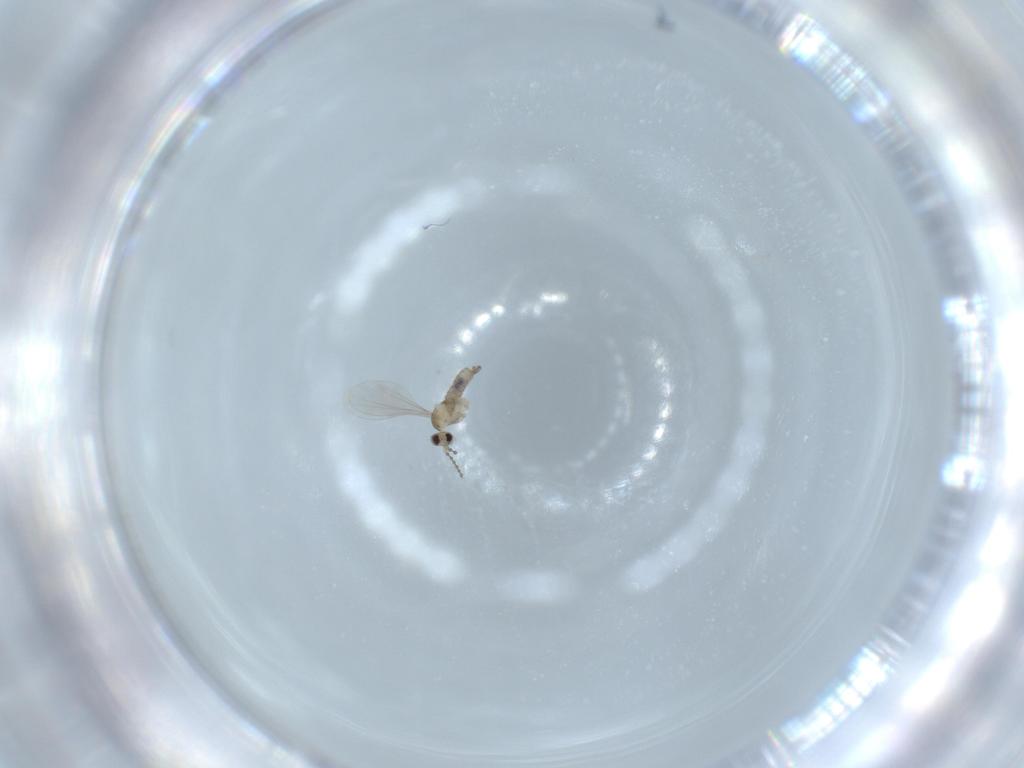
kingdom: Animalia
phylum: Arthropoda
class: Insecta
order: Diptera
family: Cecidomyiidae
